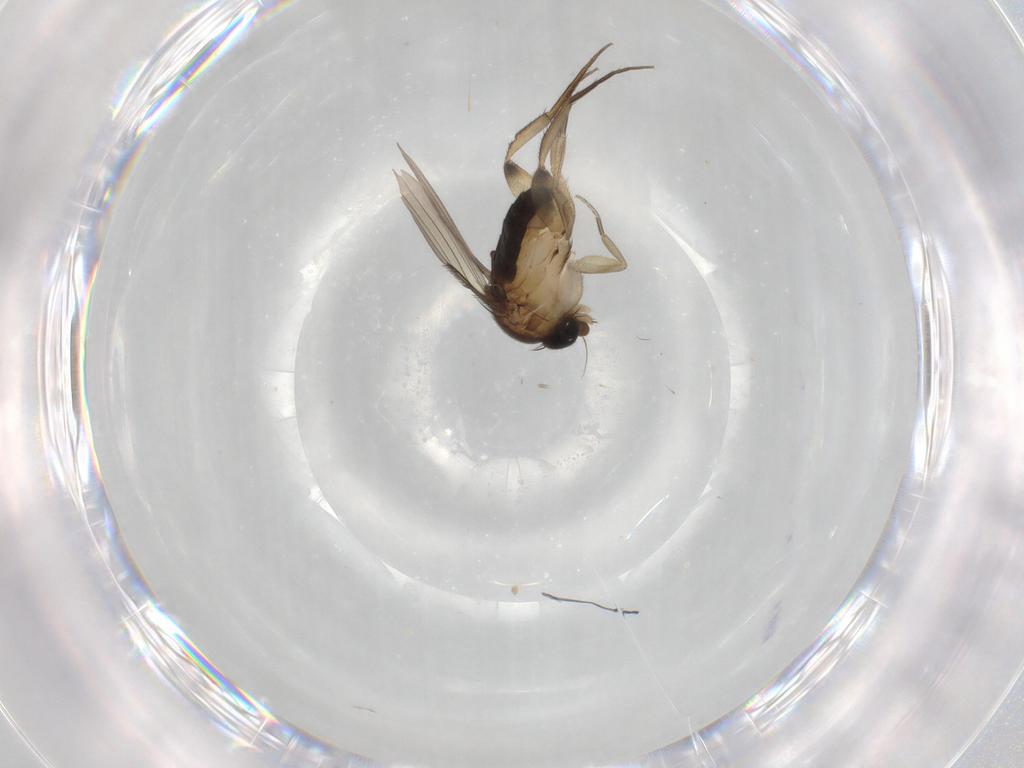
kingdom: Animalia
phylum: Arthropoda
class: Insecta
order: Diptera
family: Phoridae
